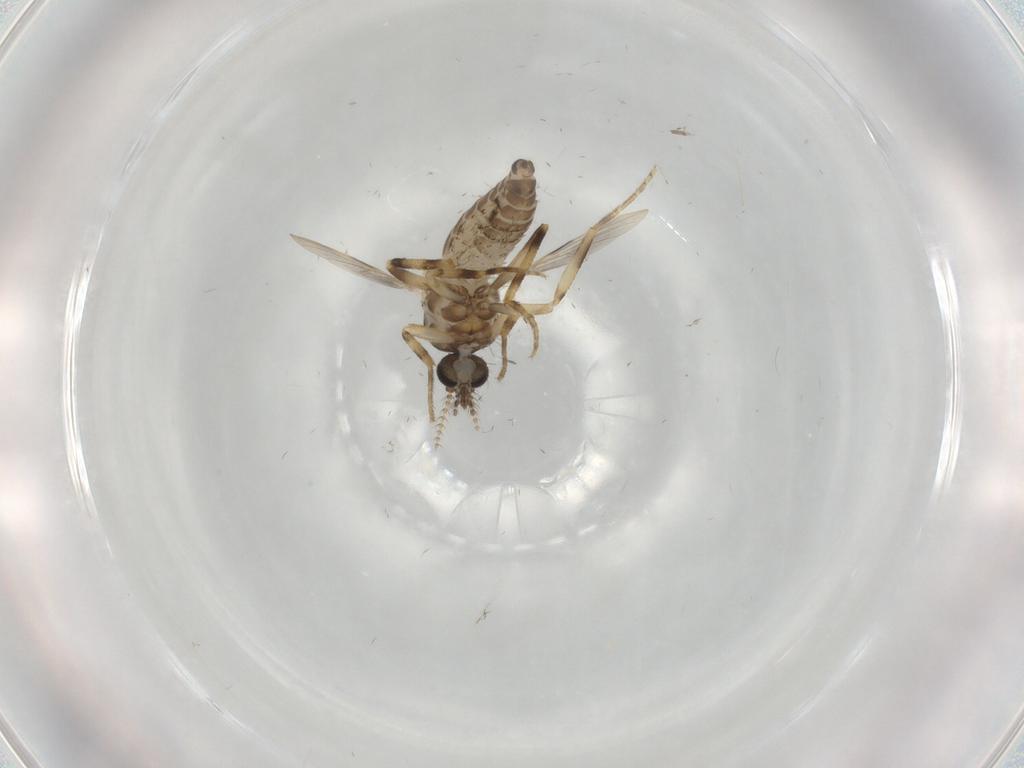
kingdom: Animalia
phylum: Arthropoda
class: Insecta
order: Diptera
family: Ceratopogonidae
